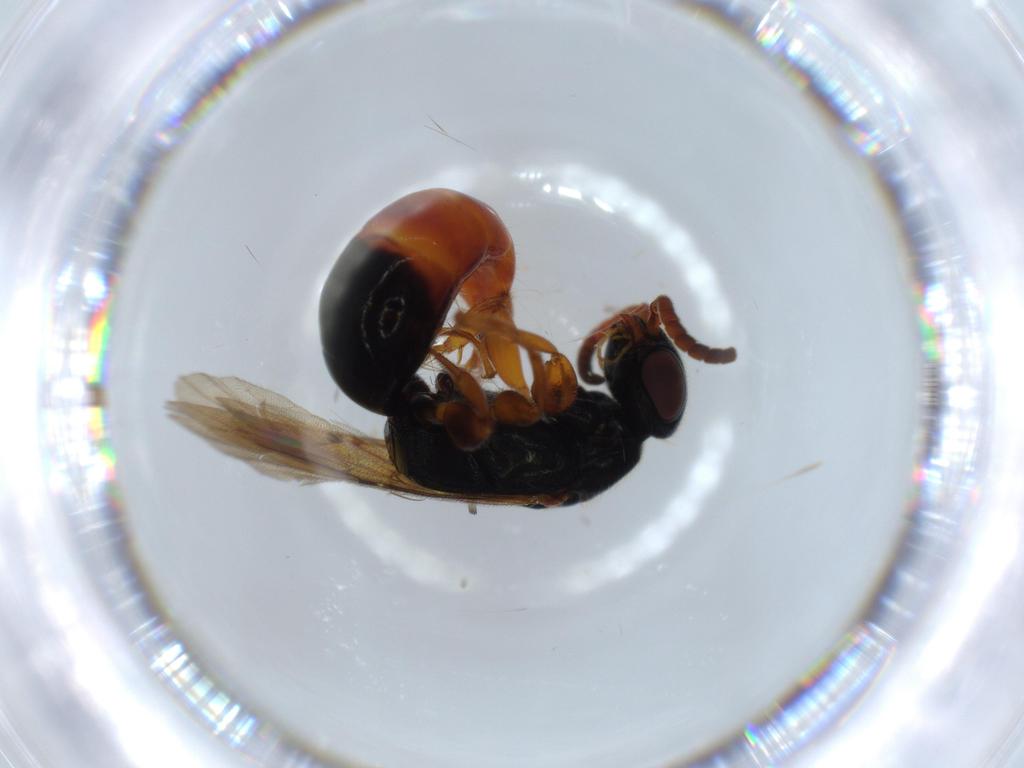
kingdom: Animalia
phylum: Arthropoda
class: Insecta
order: Hymenoptera
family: Bethylidae
